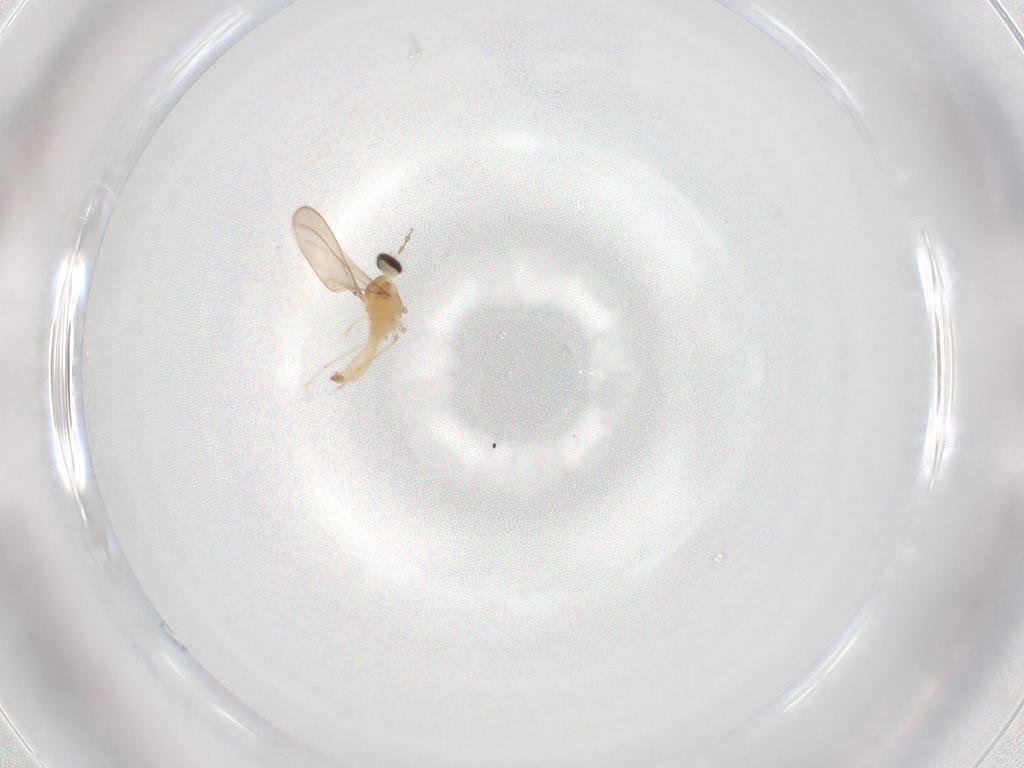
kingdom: Animalia
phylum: Arthropoda
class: Insecta
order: Diptera
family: Cecidomyiidae
